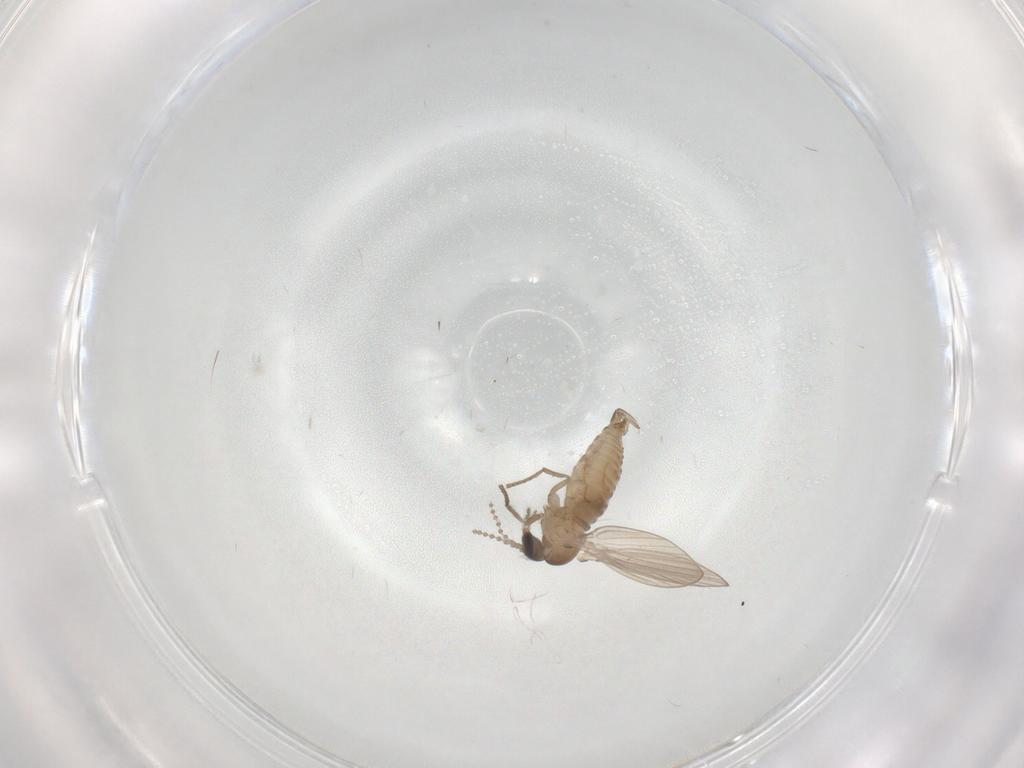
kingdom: Animalia
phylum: Arthropoda
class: Insecta
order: Diptera
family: Psychodidae
